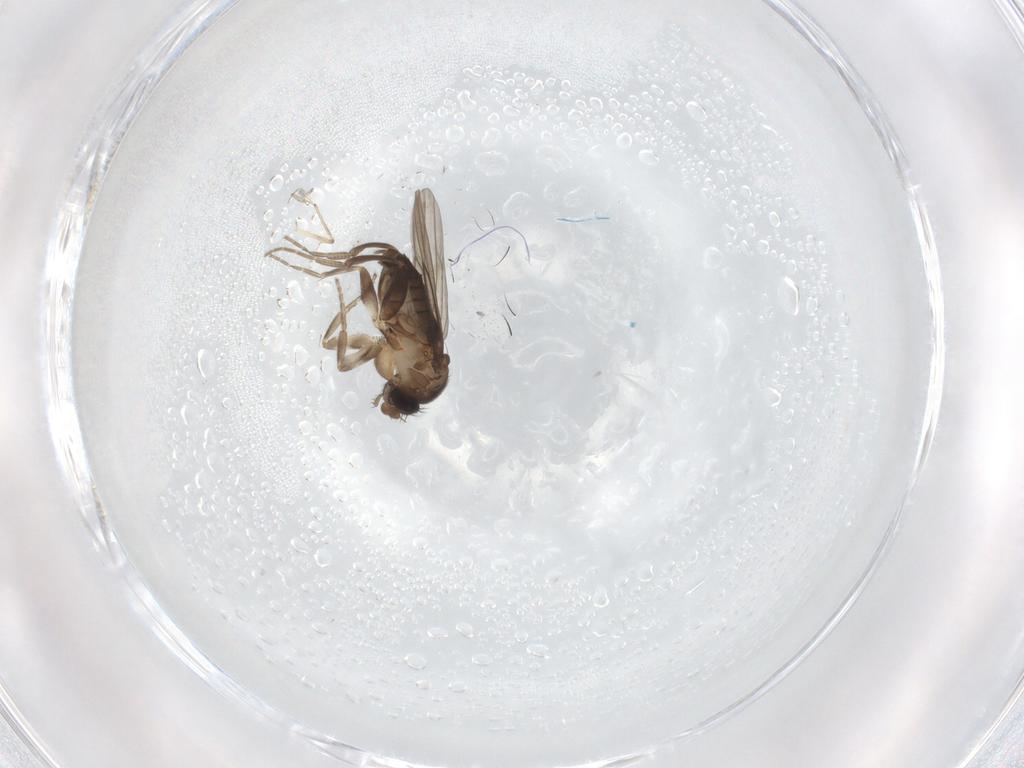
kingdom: Animalia
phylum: Arthropoda
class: Insecta
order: Diptera
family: Phoridae
